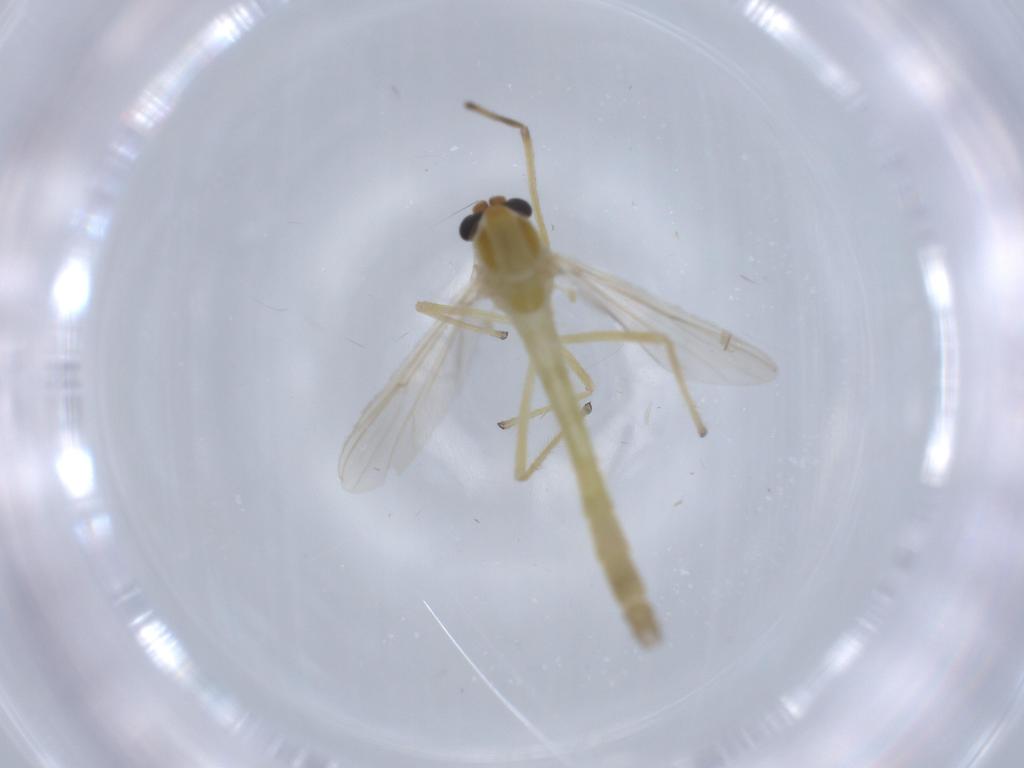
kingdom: Animalia
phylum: Arthropoda
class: Insecta
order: Diptera
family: Chironomidae
